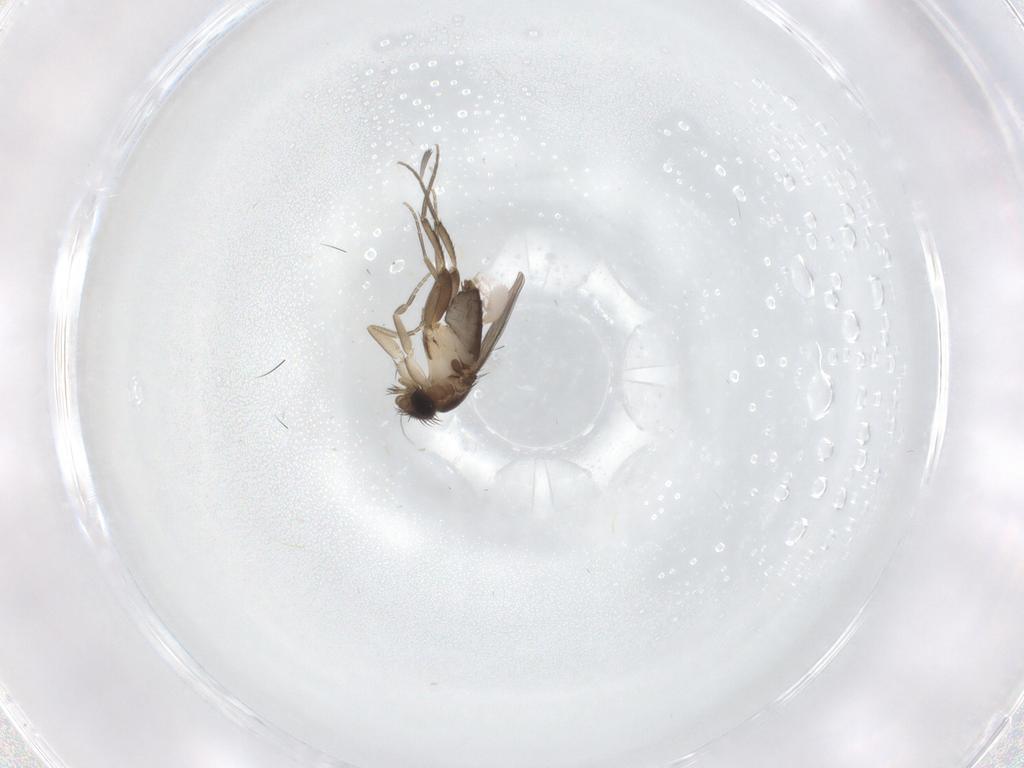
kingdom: Animalia
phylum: Arthropoda
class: Insecta
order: Diptera
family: Phoridae
